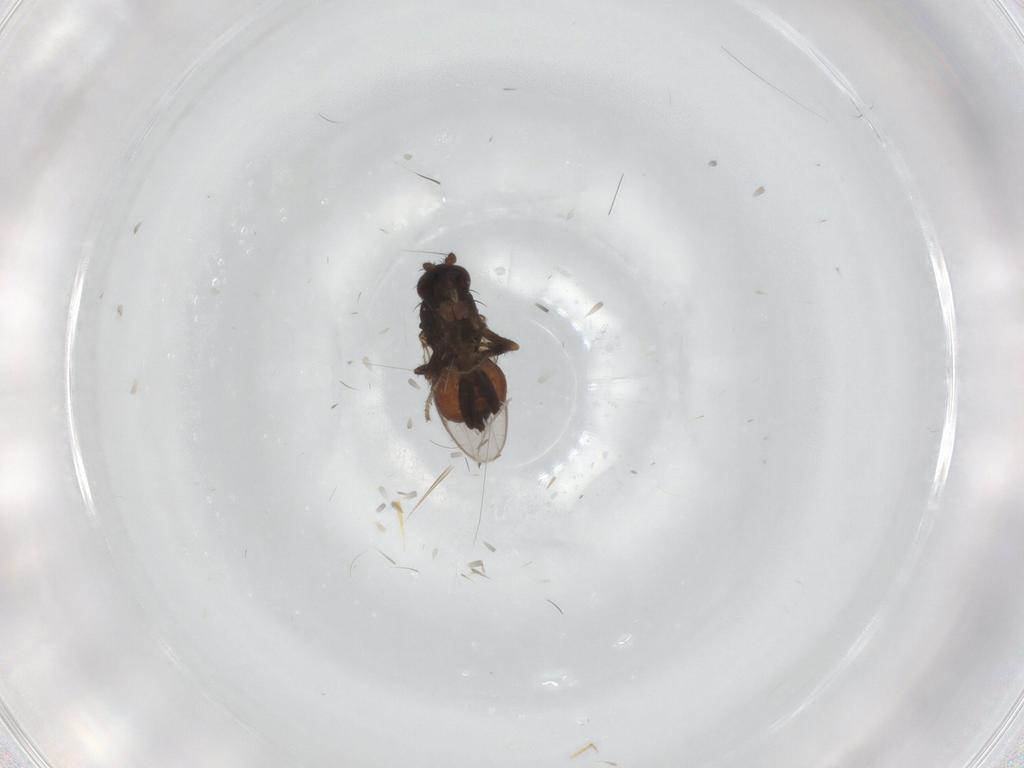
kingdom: Animalia
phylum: Arthropoda
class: Insecta
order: Diptera
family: Sphaeroceridae
